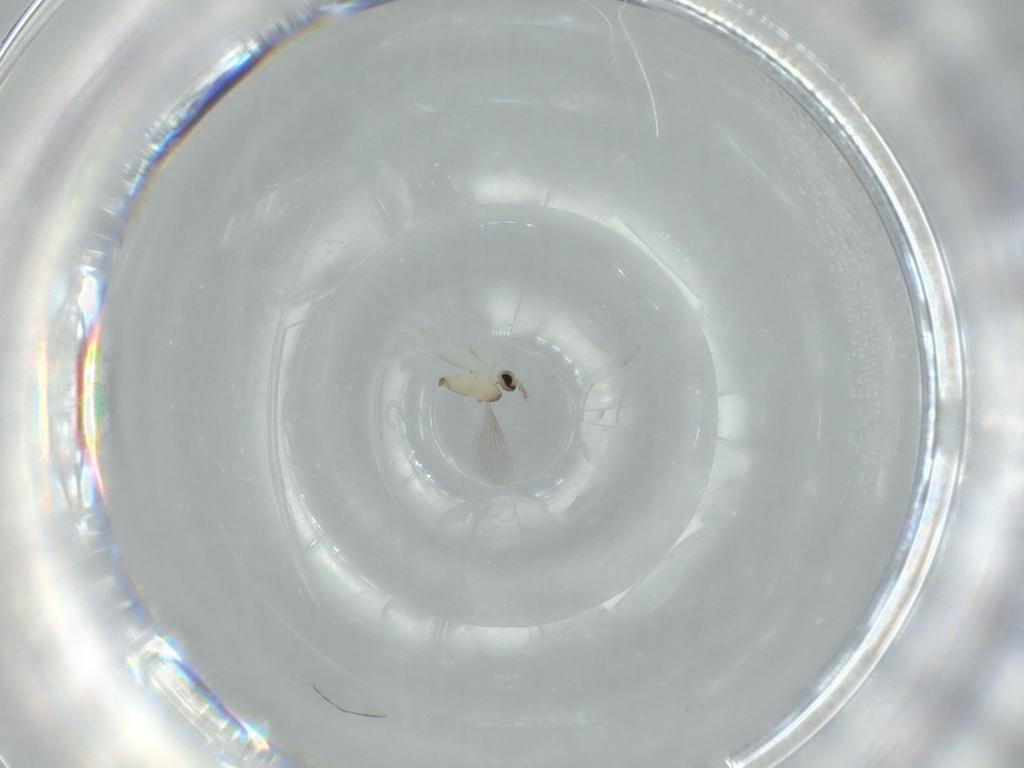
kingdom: Animalia
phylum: Arthropoda
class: Insecta
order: Diptera
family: Cecidomyiidae
